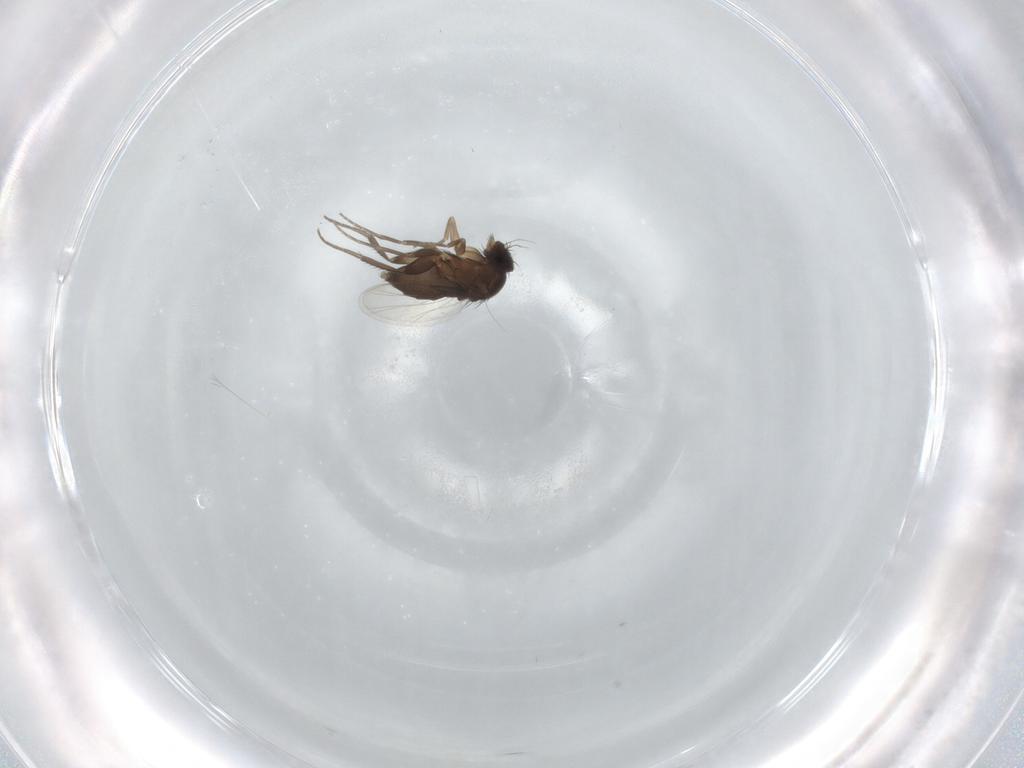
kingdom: Animalia
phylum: Arthropoda
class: Insecta
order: Diptera
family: Phoridae
